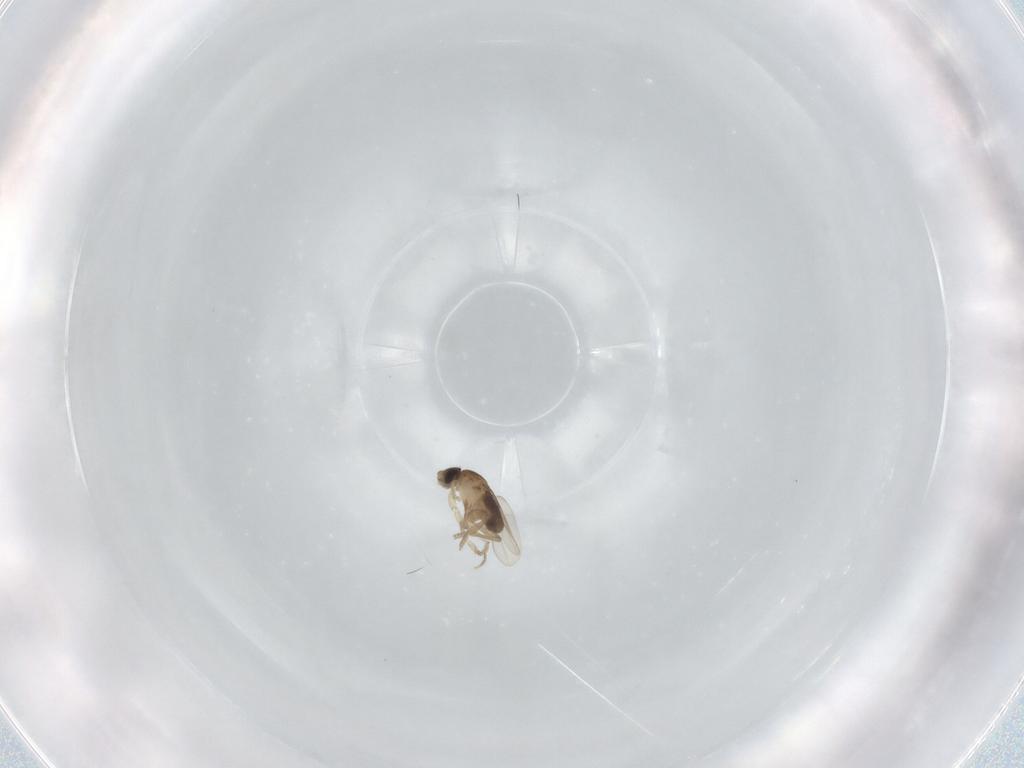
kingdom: Animalia
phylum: Arthropoda
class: Insecta
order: Diptera
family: Phoridae
